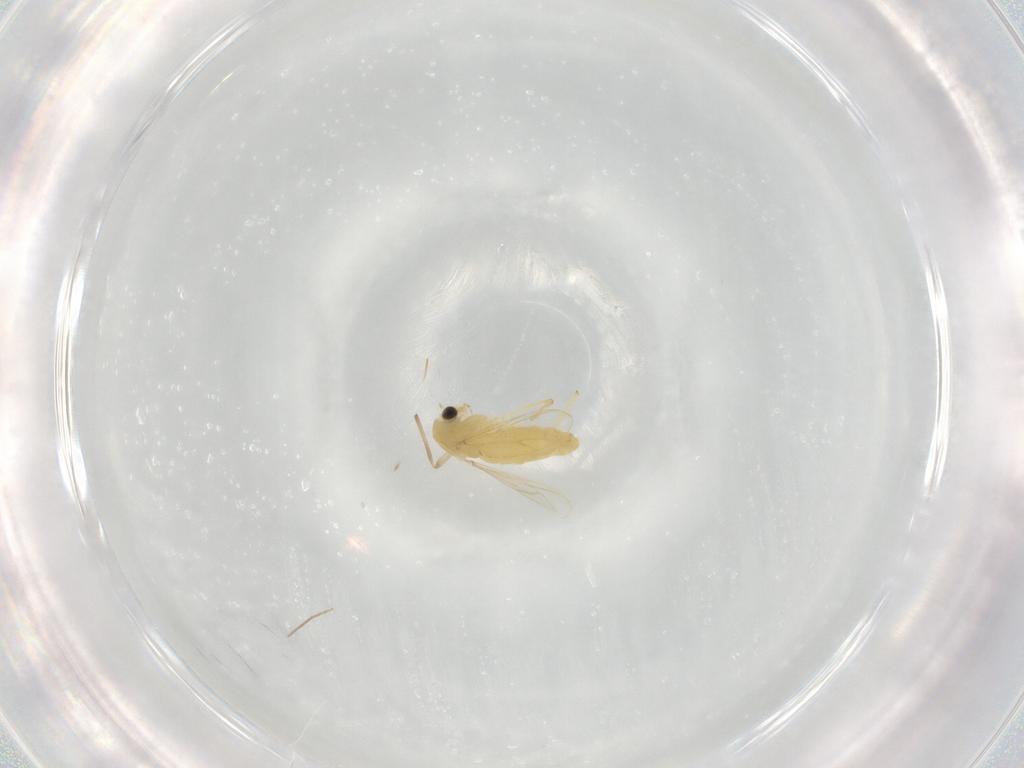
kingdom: Animalia
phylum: Arthropoda
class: Insecta
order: Diptera
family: Chironomidae
